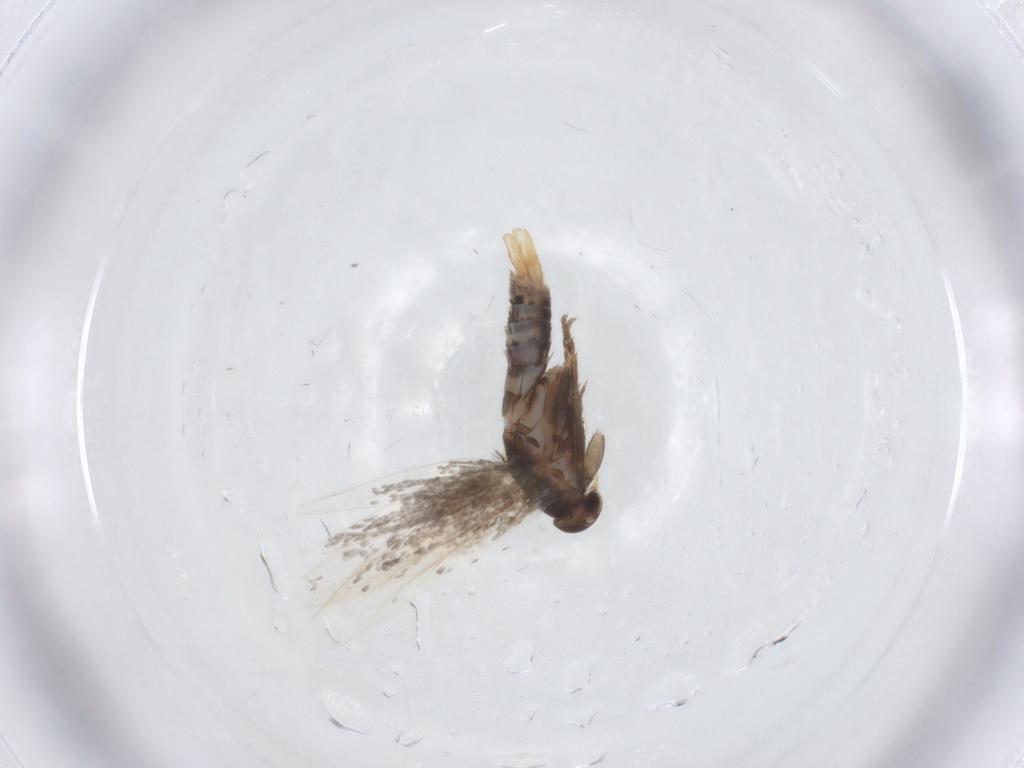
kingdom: Animalia
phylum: Arthropoda
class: Insecta
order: Lepidoptera
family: Elachistidae
